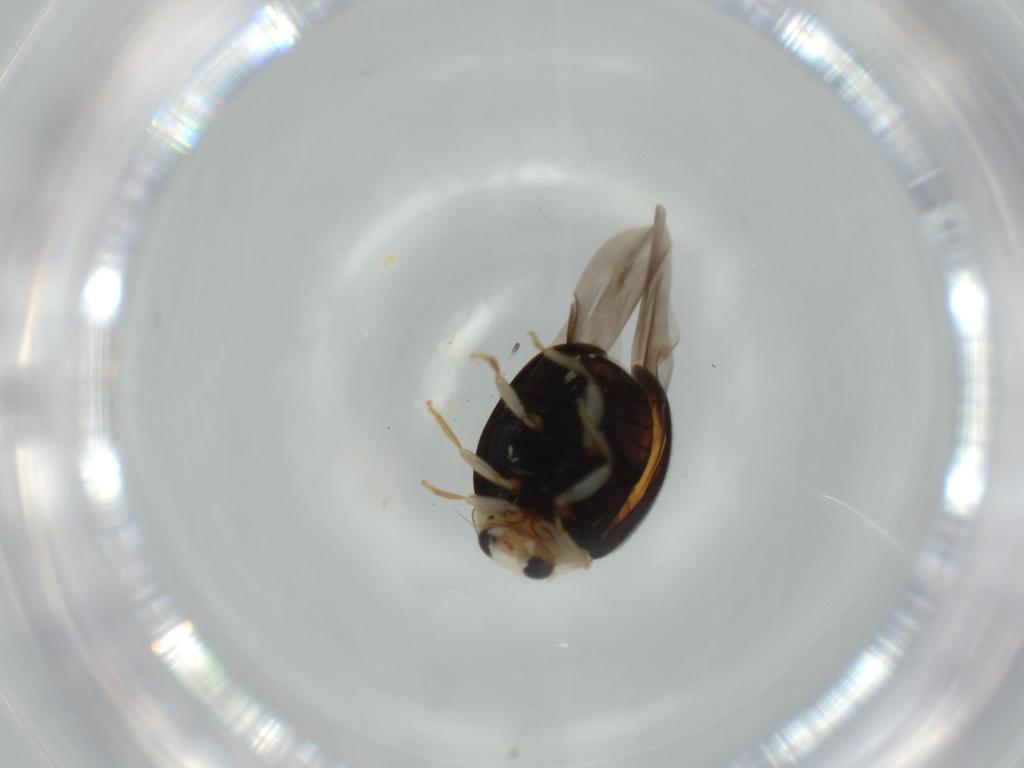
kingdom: Animalia
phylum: Arthropoda
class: Insecta
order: Coleoptera
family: Coccinellidae
